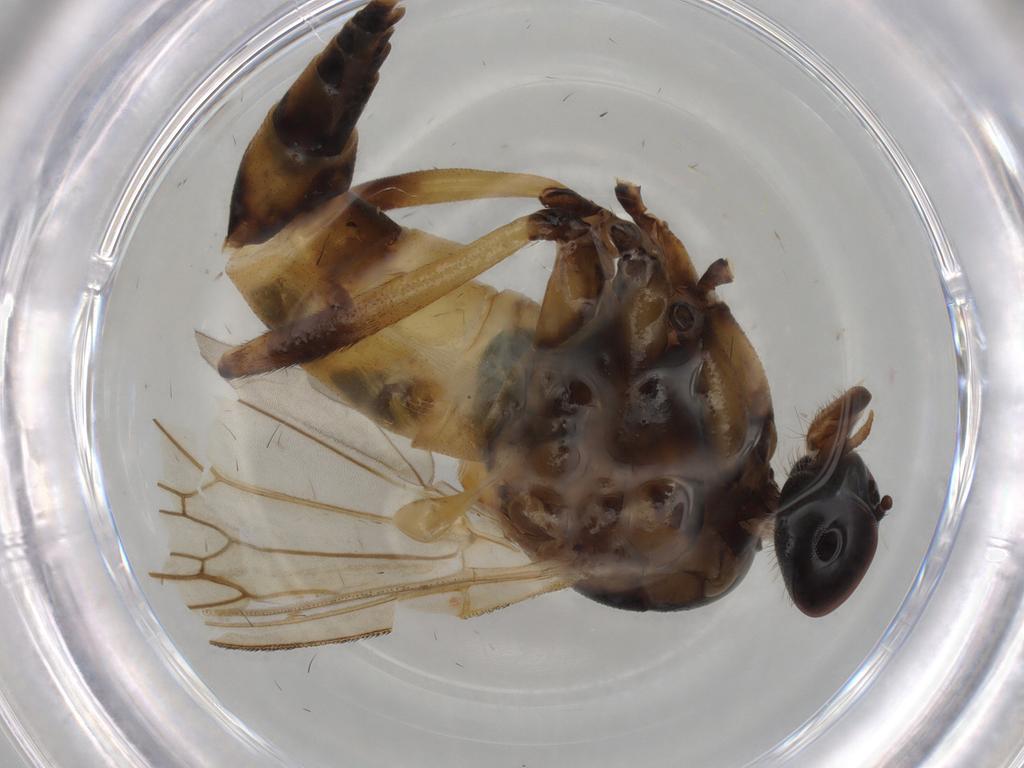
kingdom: Animalia
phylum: Arthropoda
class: Insecta
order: Diptera
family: Rhagionidae
